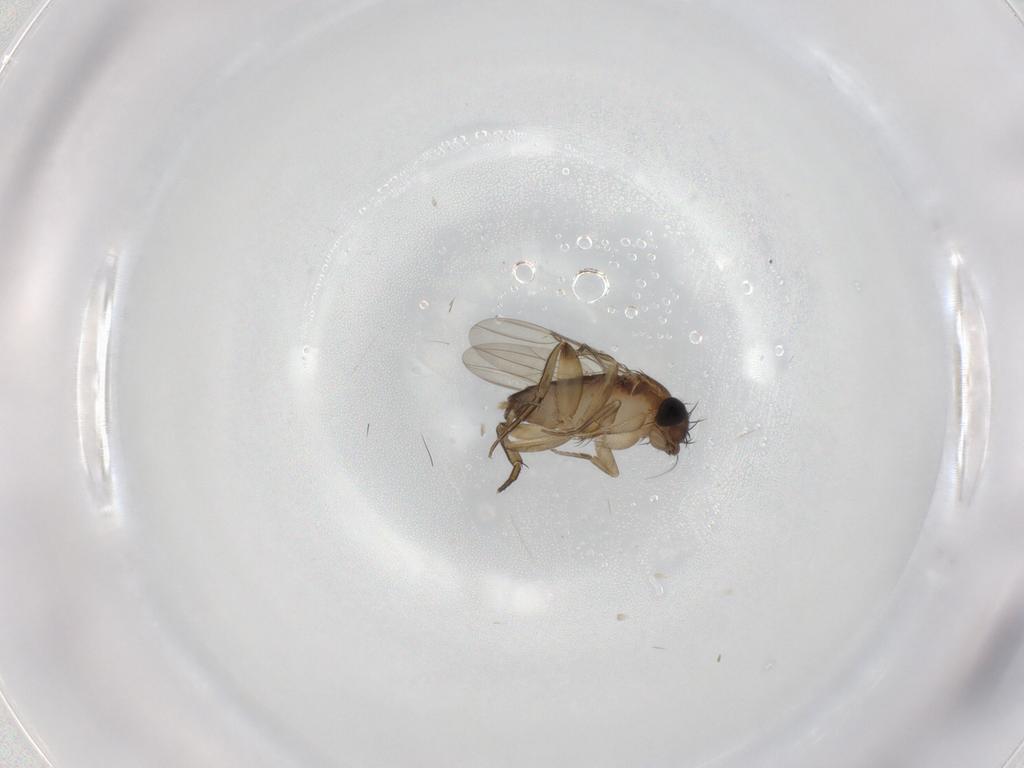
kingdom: Animalia
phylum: Arthropoda
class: Insecta
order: Diptera
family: Phoridae
